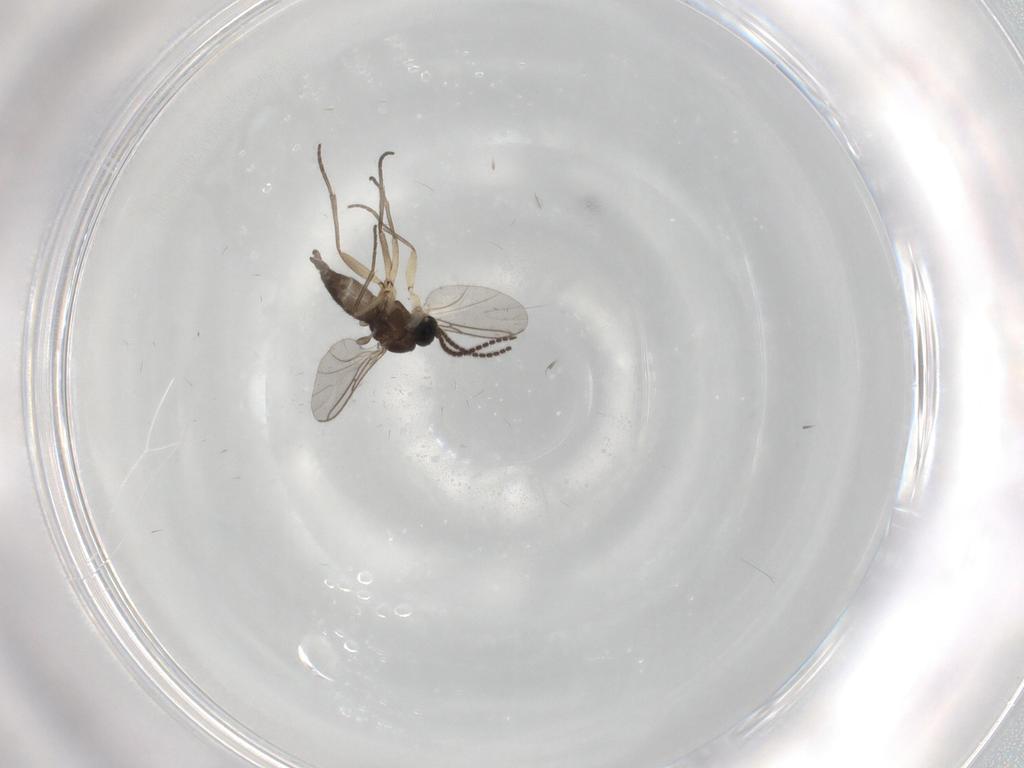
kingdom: Animalia
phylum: Arthropoda
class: Insecta
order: Diptera
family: Sciaridae
